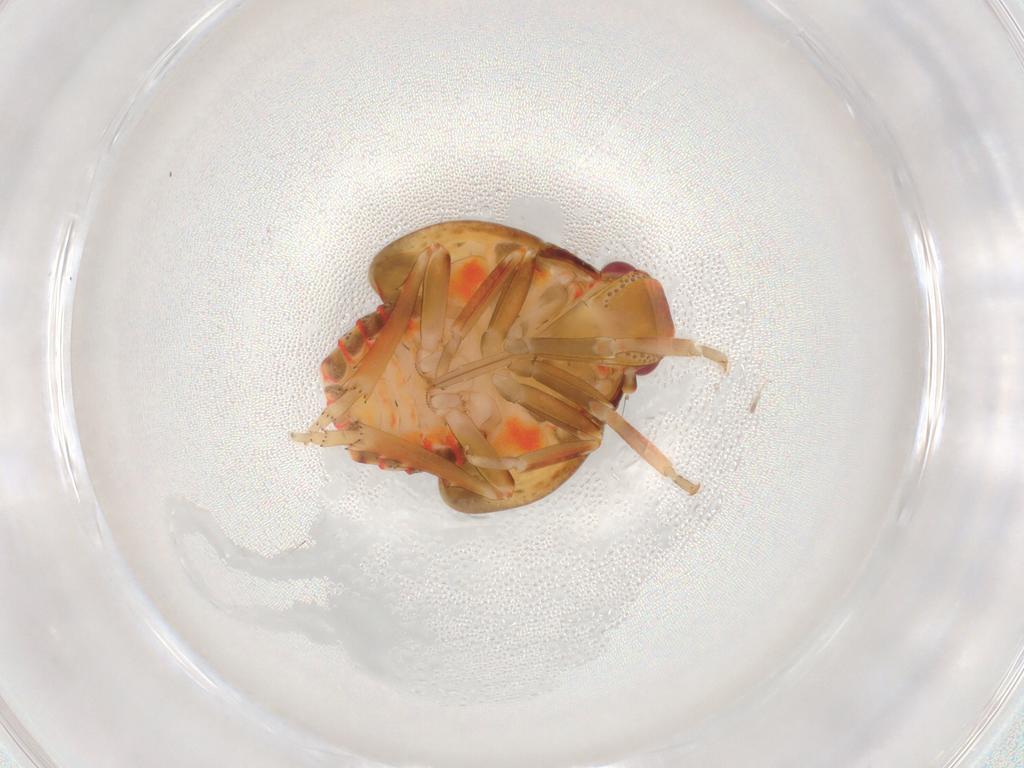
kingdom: Animalia
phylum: Arthropoda
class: Insecta
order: Hemiptera
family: Flatidae
